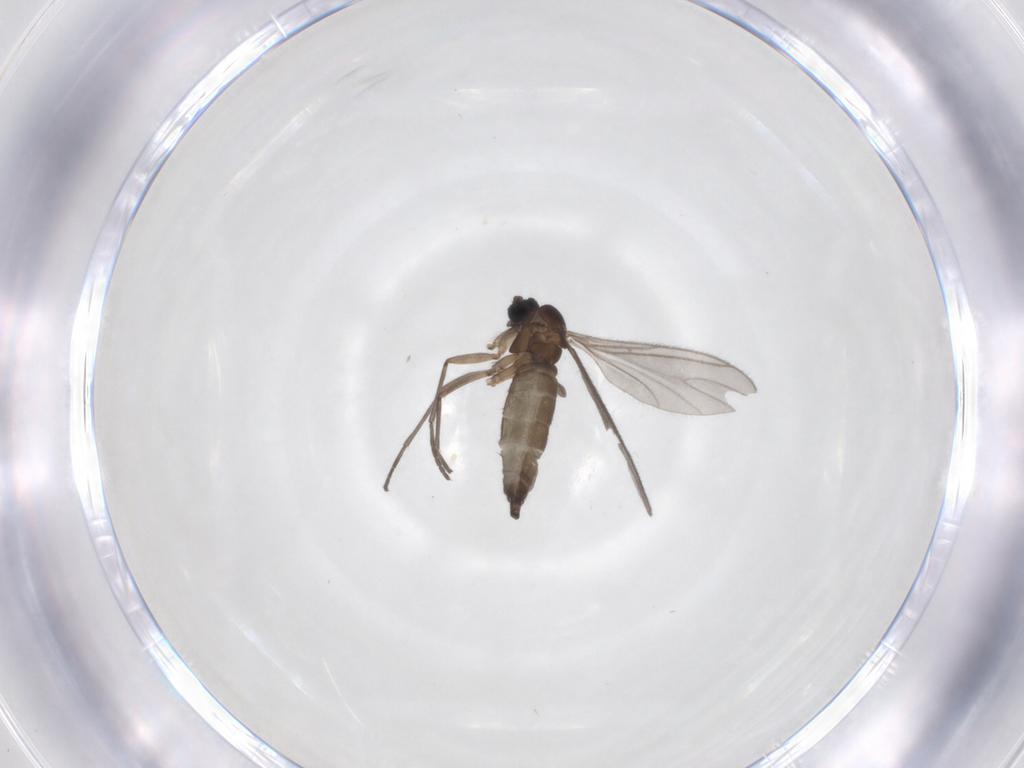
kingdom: Animalia
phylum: Arthropoda
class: Insecta
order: Diptera
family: Sciaridae
